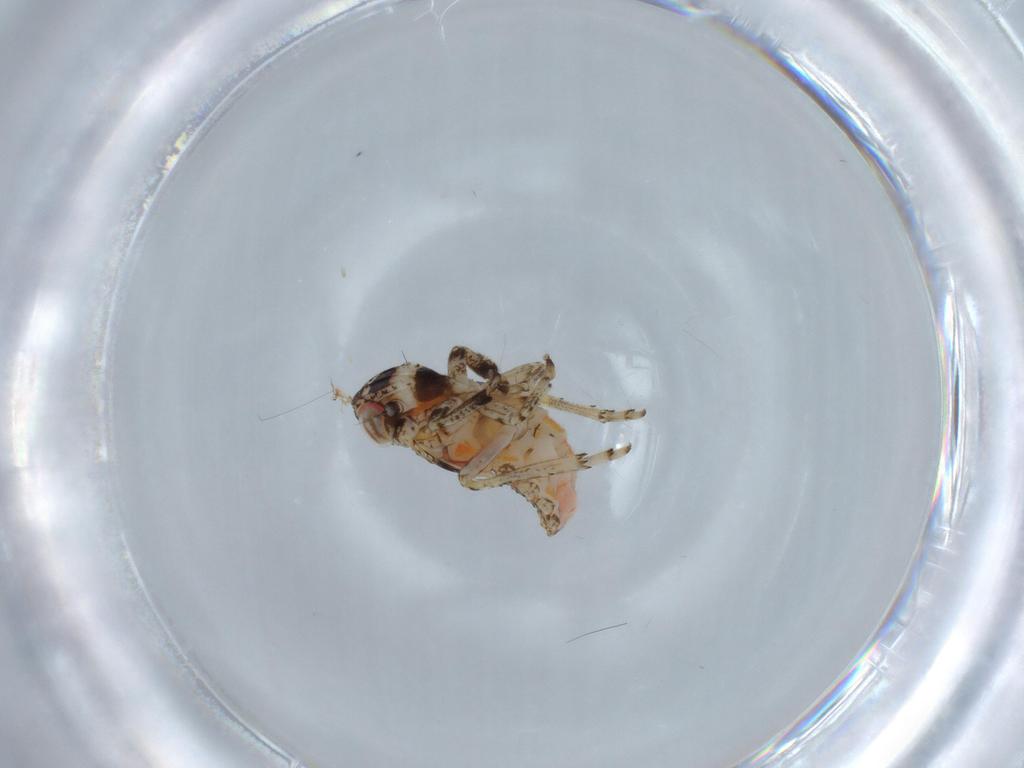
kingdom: Animalia
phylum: Arthropoda
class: Insecta
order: Hemiptera
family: Issidae
